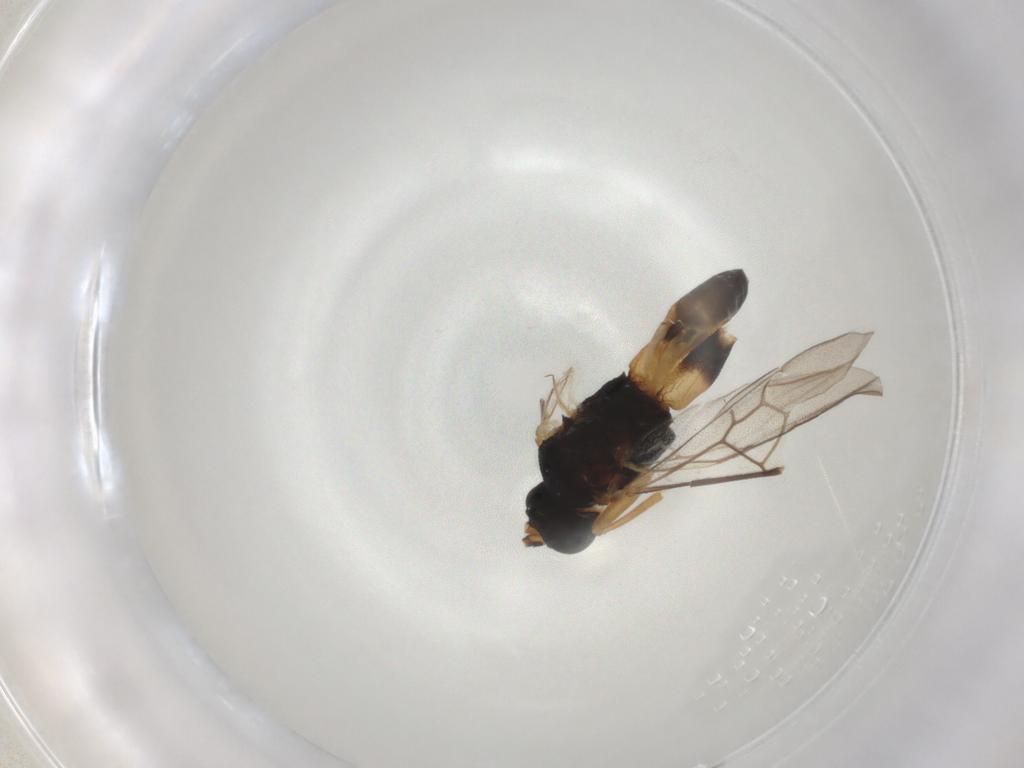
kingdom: Animalia
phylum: Arthropoda
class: Insecta
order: Hymenoptera
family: Braconidae
